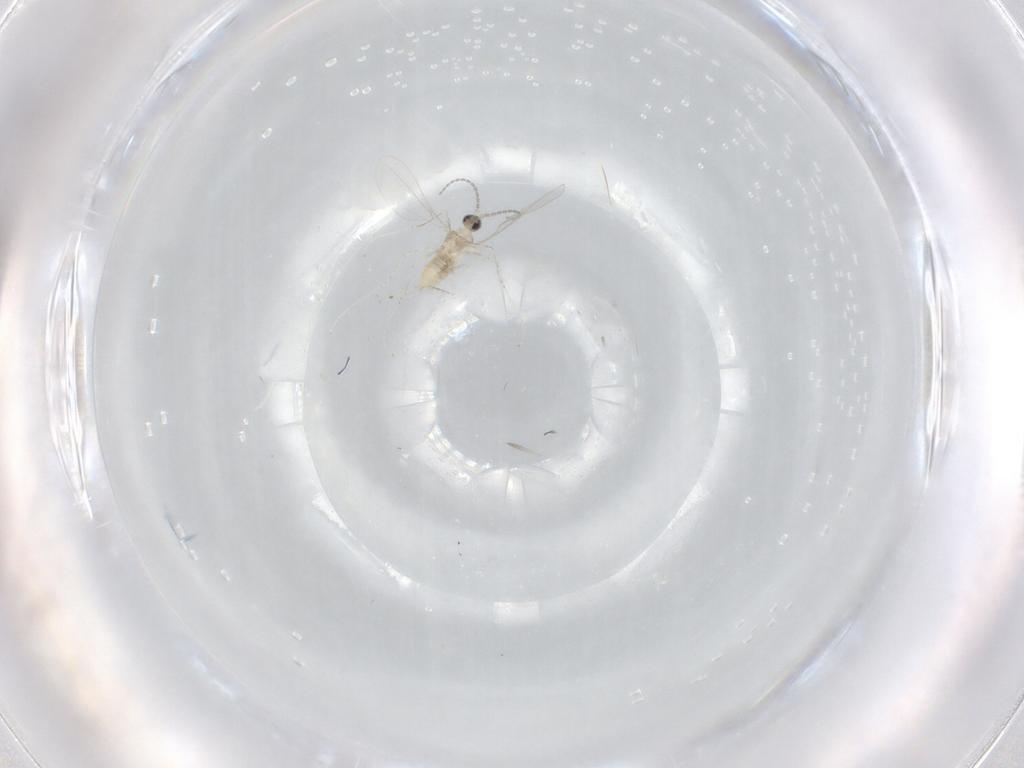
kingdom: Animalia
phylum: Arthropoda
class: Insecta
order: Diptera
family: Cecidomyiidae
